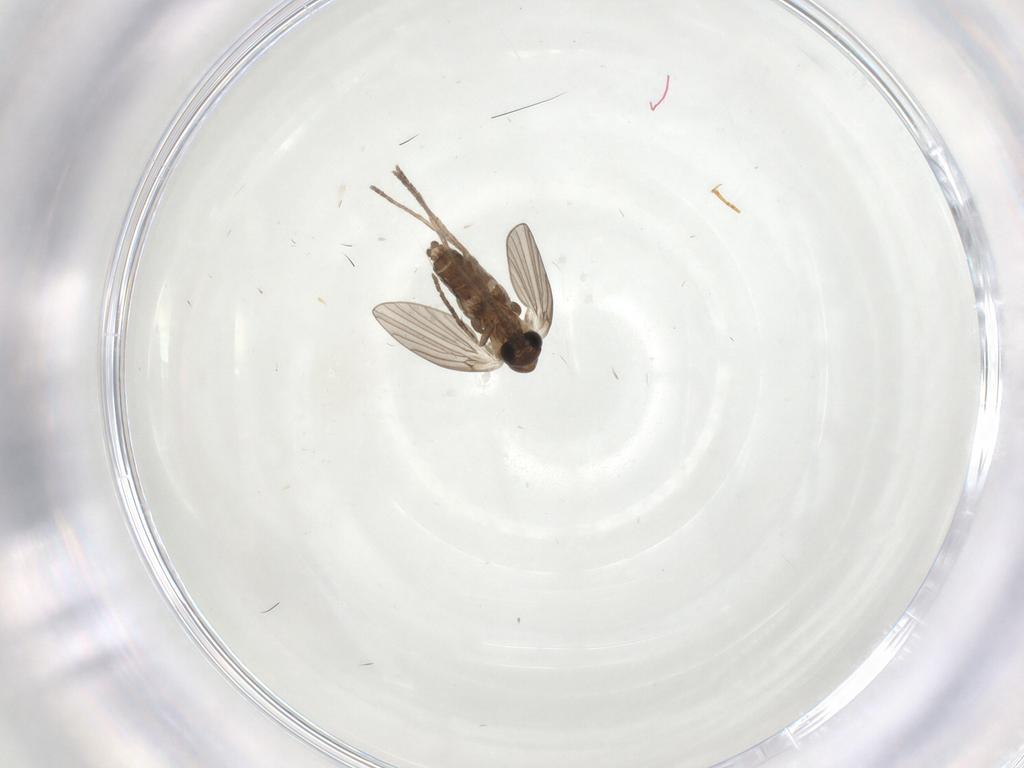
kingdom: Animalia
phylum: Arthropoda
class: Insecta
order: Diptera
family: Psychodidae
